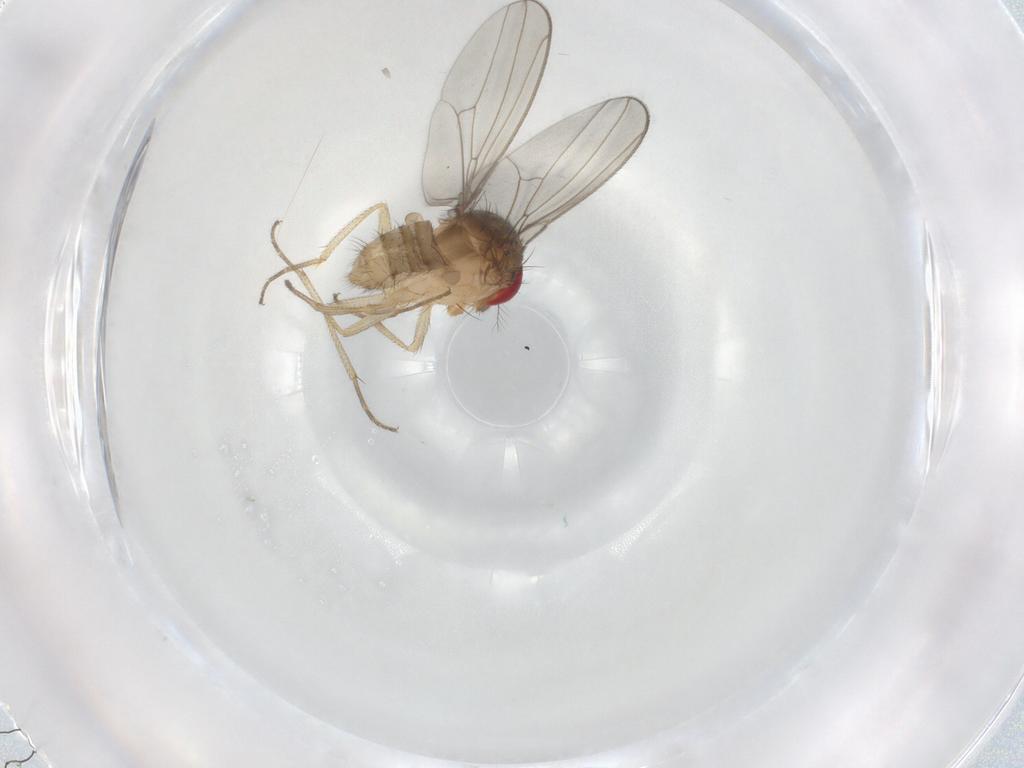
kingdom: Animalia
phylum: Arthropoda
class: Insecta
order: Diptera
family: Drosophilidae
